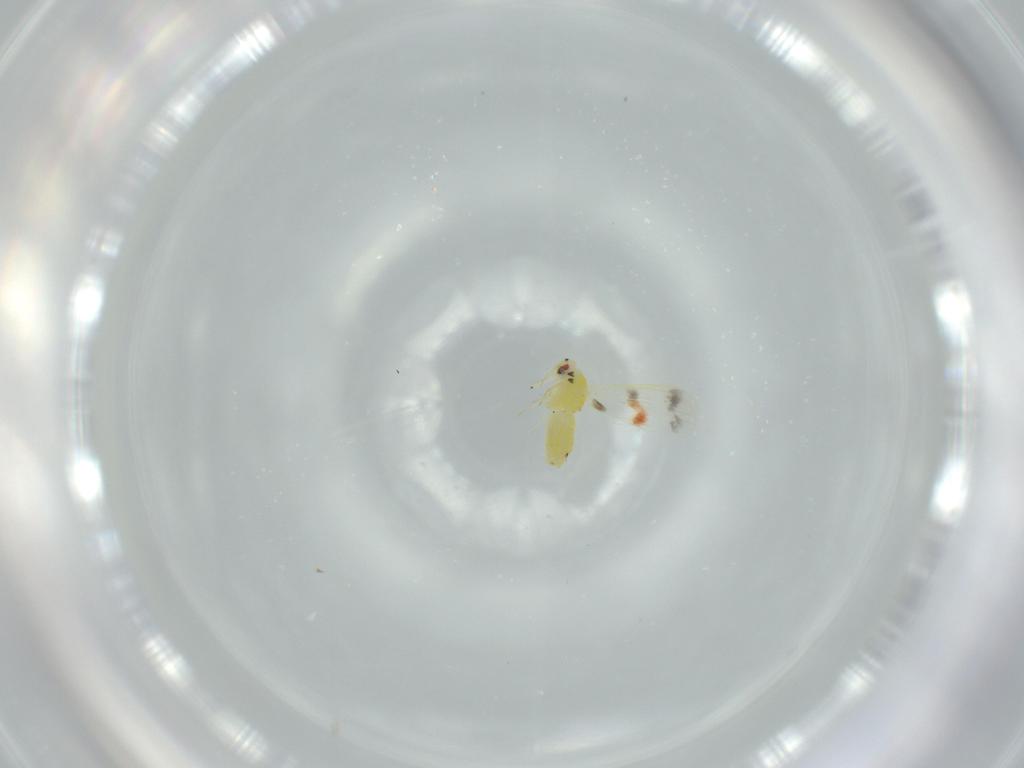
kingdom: Animalia
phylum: Arthropoda
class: Insecta
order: Hemiptera
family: Aleyrodidae
